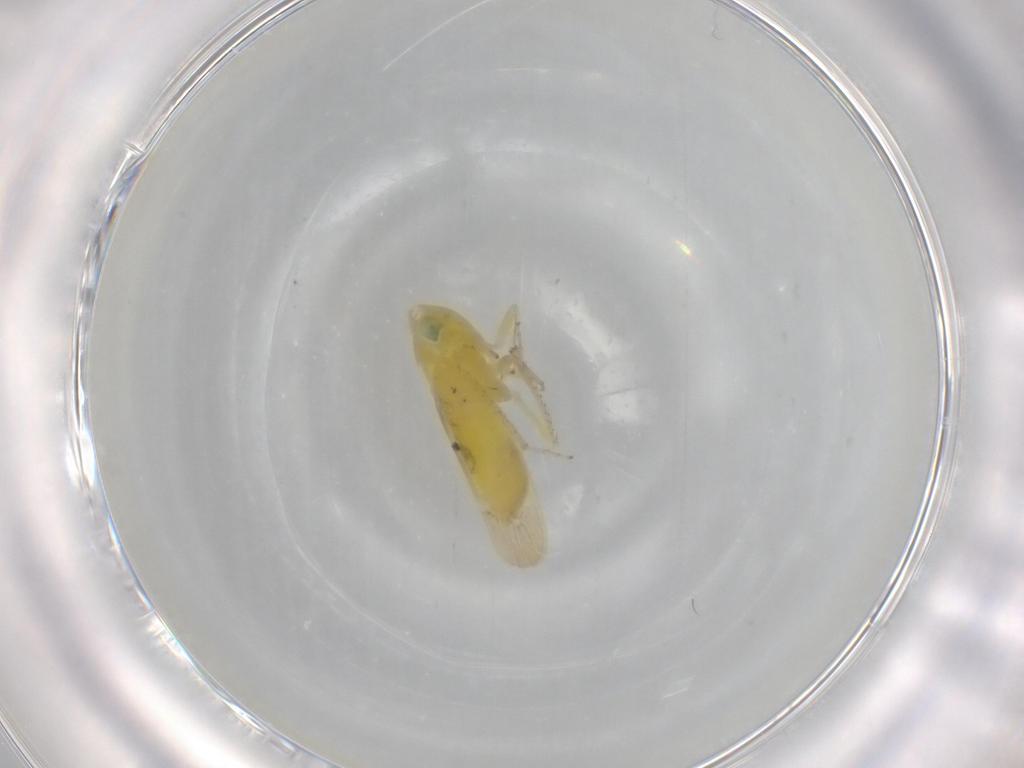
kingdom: Animalia
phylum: Arthropoda
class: Insecta
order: Hemiptera
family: Cicadellidae
